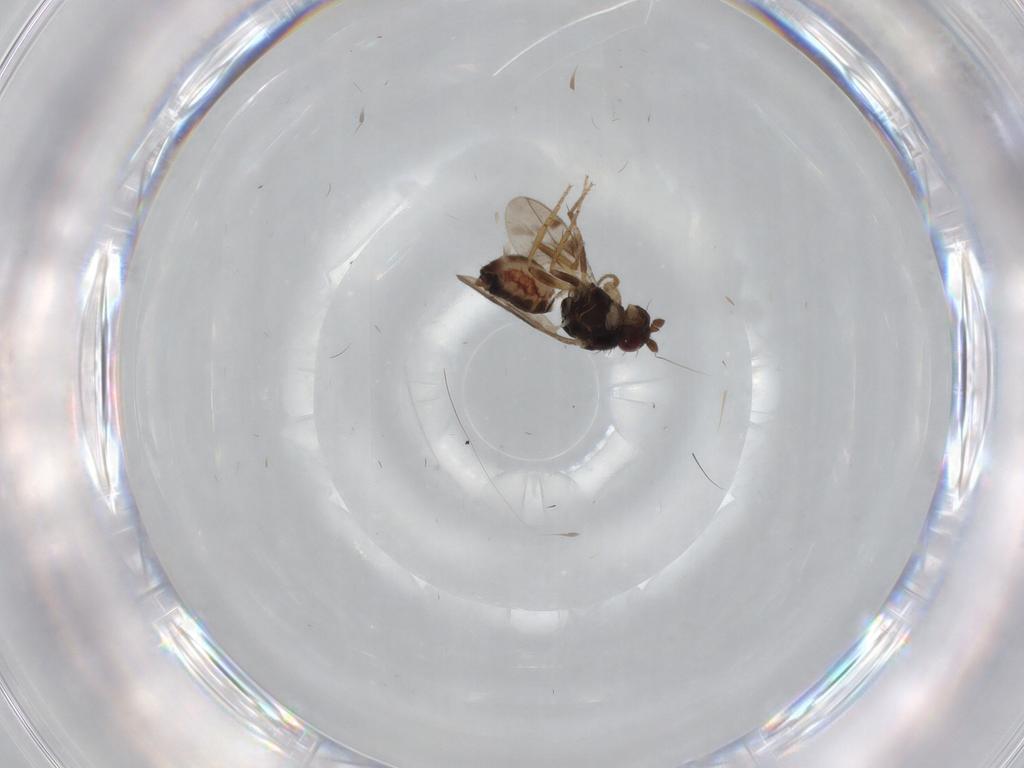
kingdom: Animalia
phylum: Arthropoda
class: Insecta
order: Diptera
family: Sphaeroceridae
